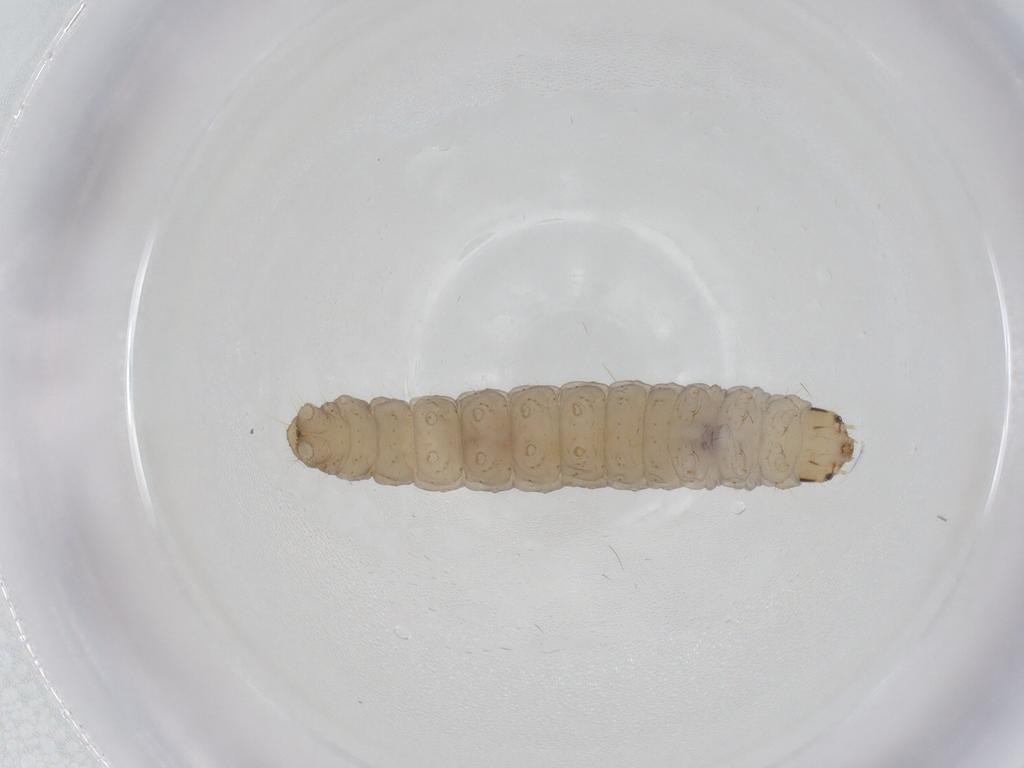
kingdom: Animalia
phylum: Arthropoda
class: Insecta
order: Lepidoptera
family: Tortricidae
